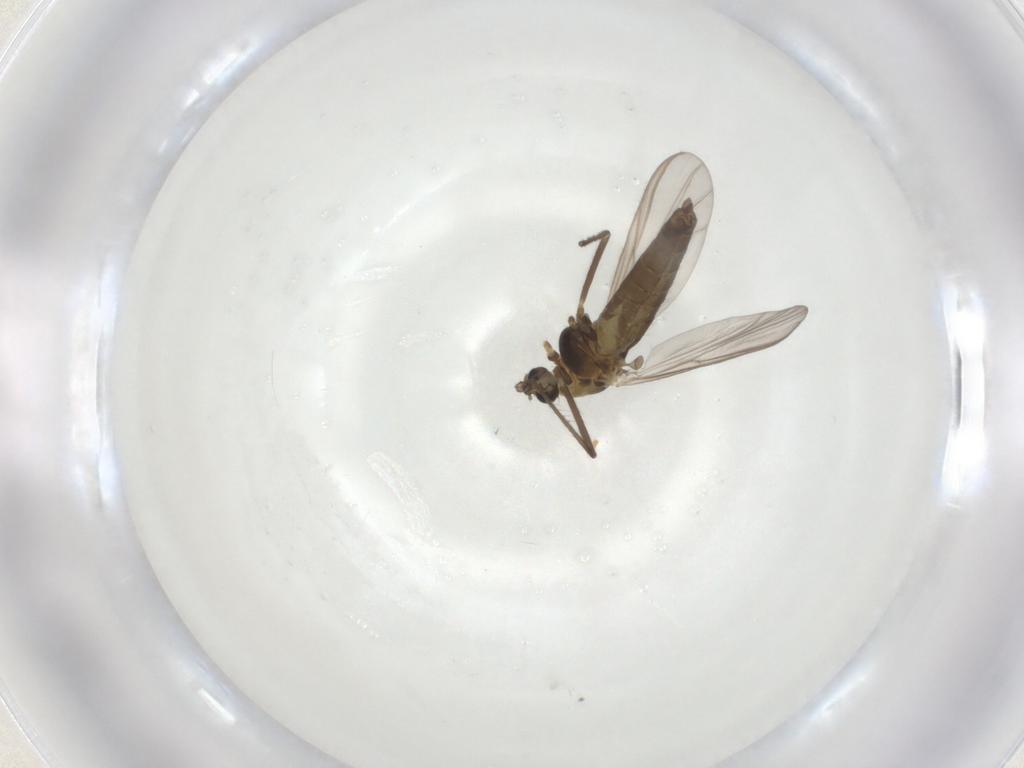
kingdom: Animalia
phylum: Arthropoda
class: Insecta
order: Diptera
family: Chironomidae
